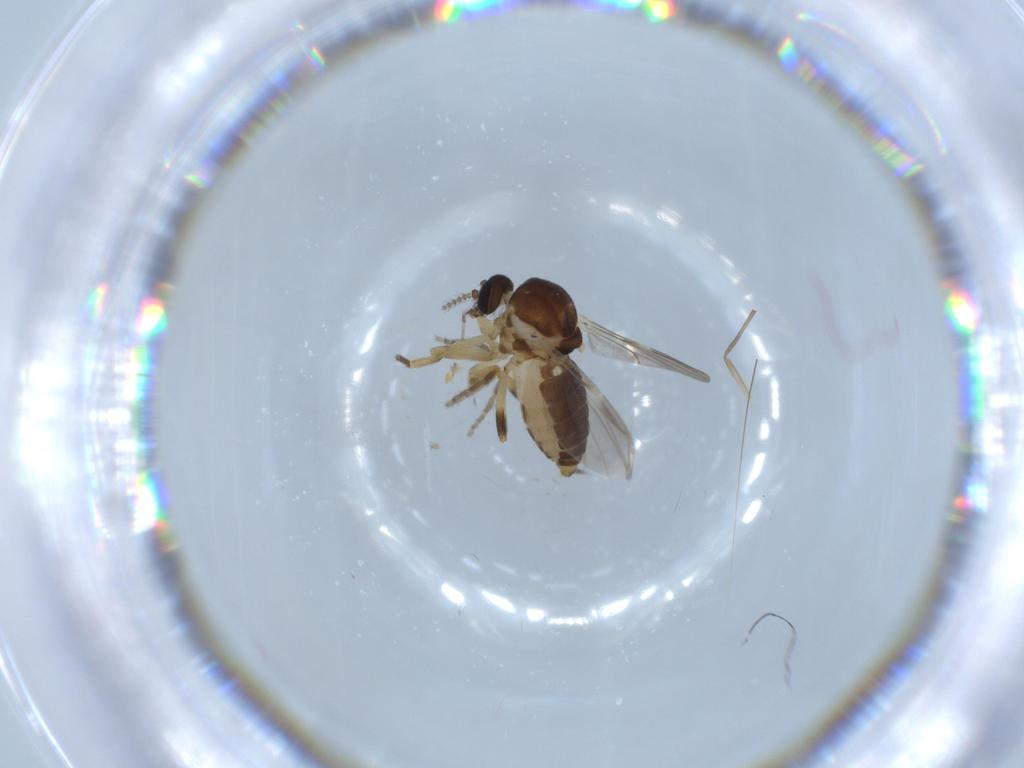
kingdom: Animalia
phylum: Arthropoda
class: Insecta
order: Diptera
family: Ceratopogonidae
